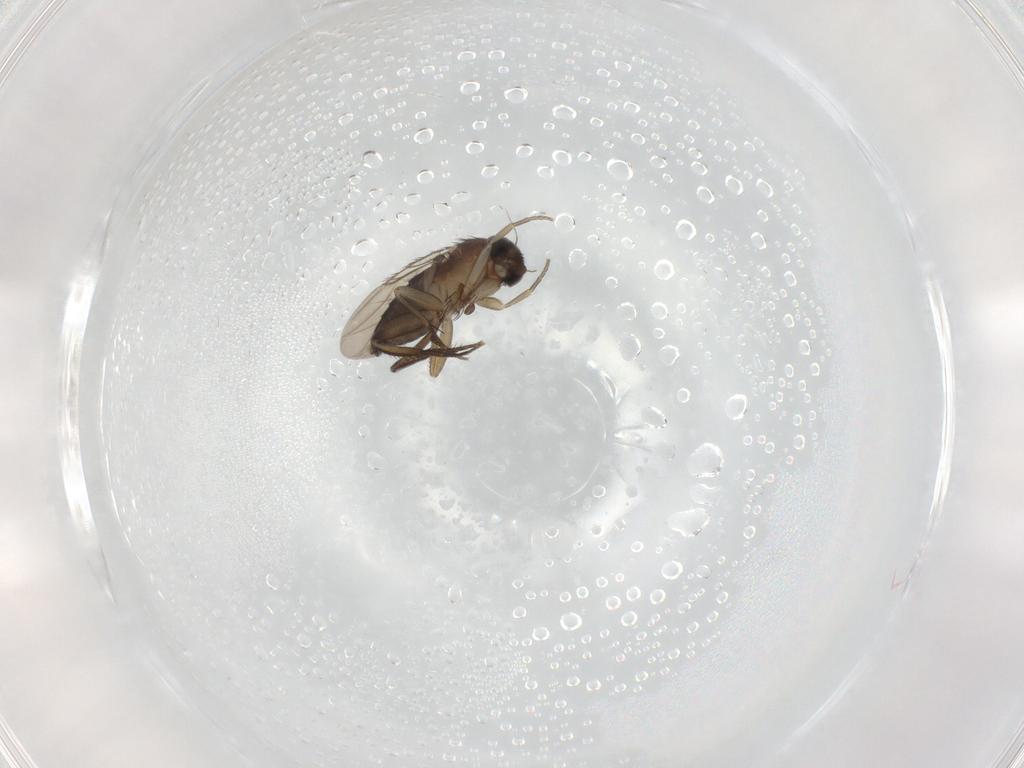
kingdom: Animalia
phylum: Arthropoda
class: Insecta
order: Diptera
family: Phoridae
